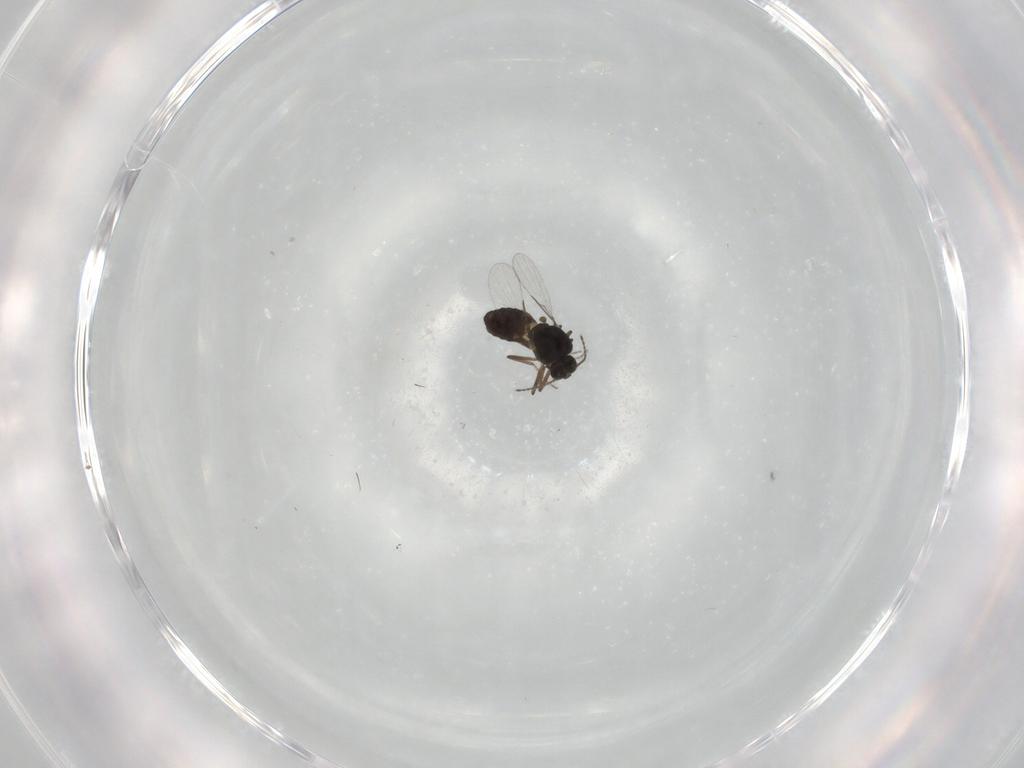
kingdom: Animalia
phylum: Arthropoda
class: Insecta
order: Diptera
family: Ceratopogonidae
